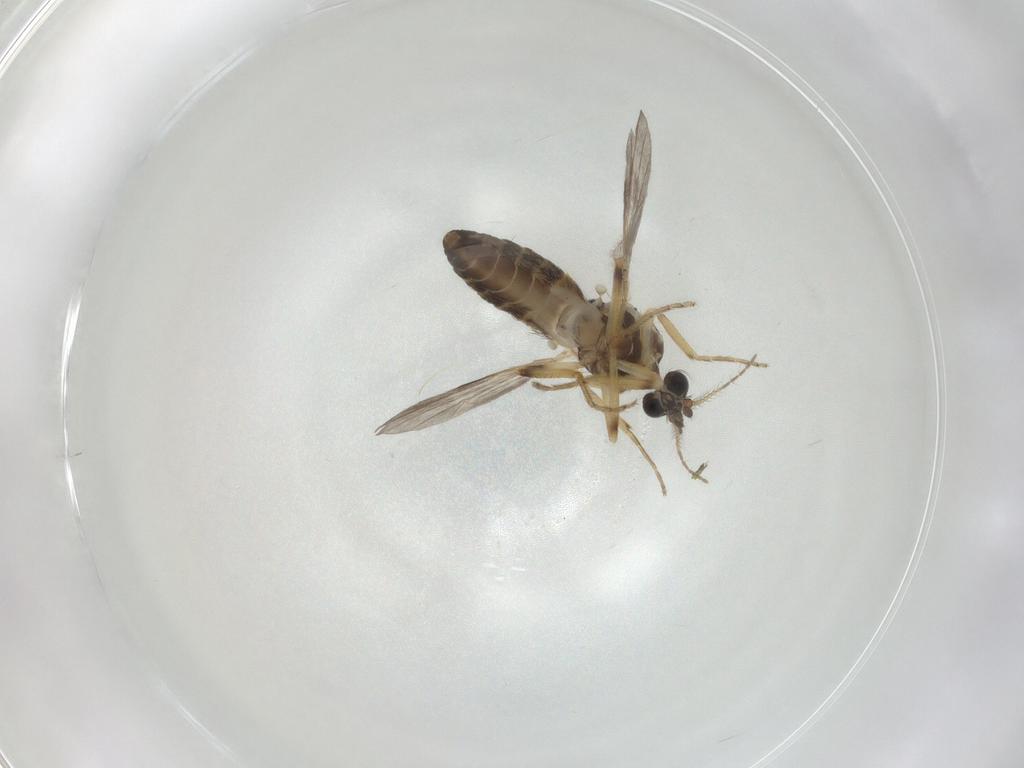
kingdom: Animalia
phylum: Arthropoda
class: Insecta
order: Diptera
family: Ceratopogonidae
